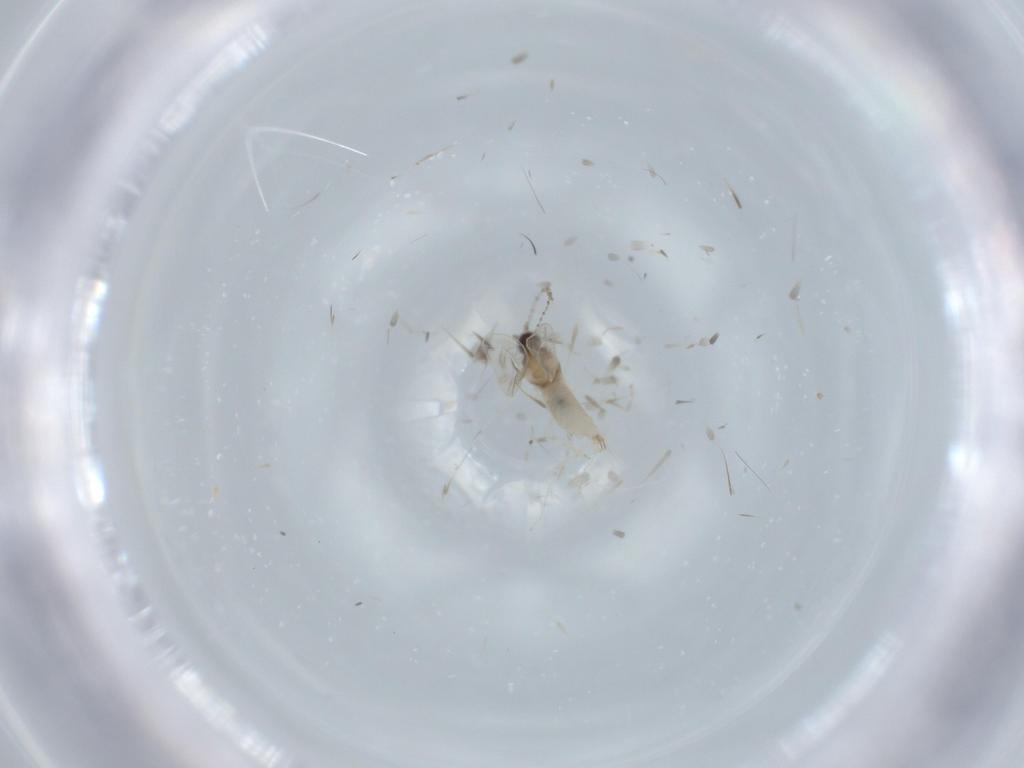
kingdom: Animalia
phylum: Arthropoda
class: Insecta
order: Diptera
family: Cecidomyiidae
